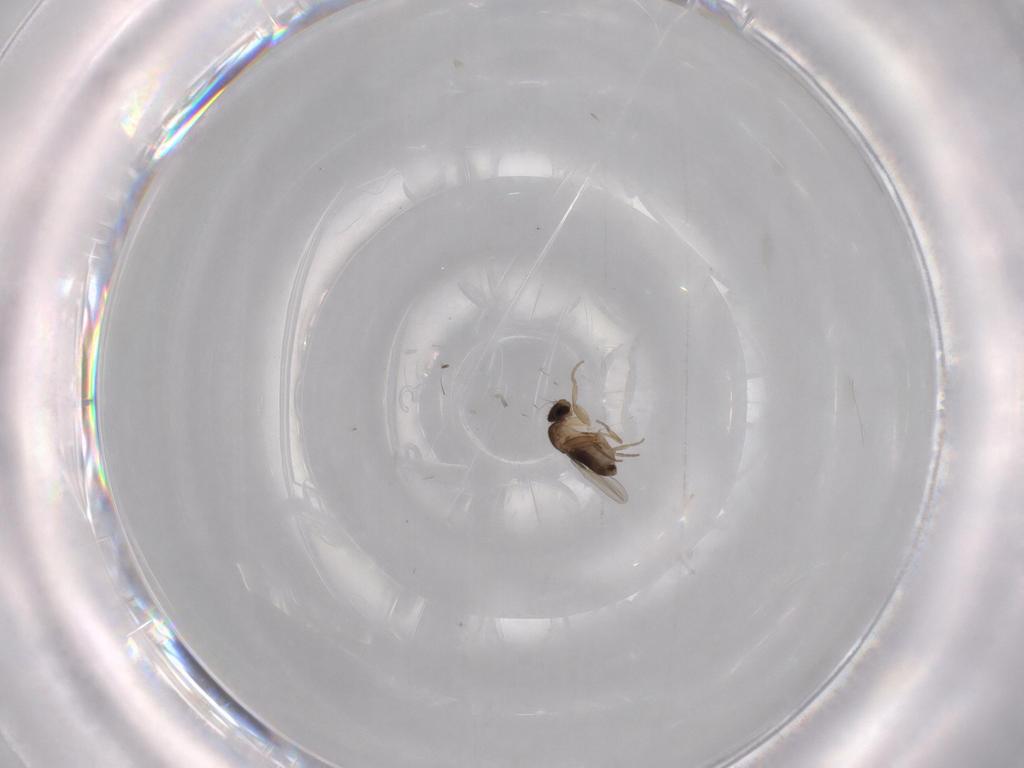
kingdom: Animalia
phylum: Arthropoda
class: Insecta
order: Diptera
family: Phoridae
